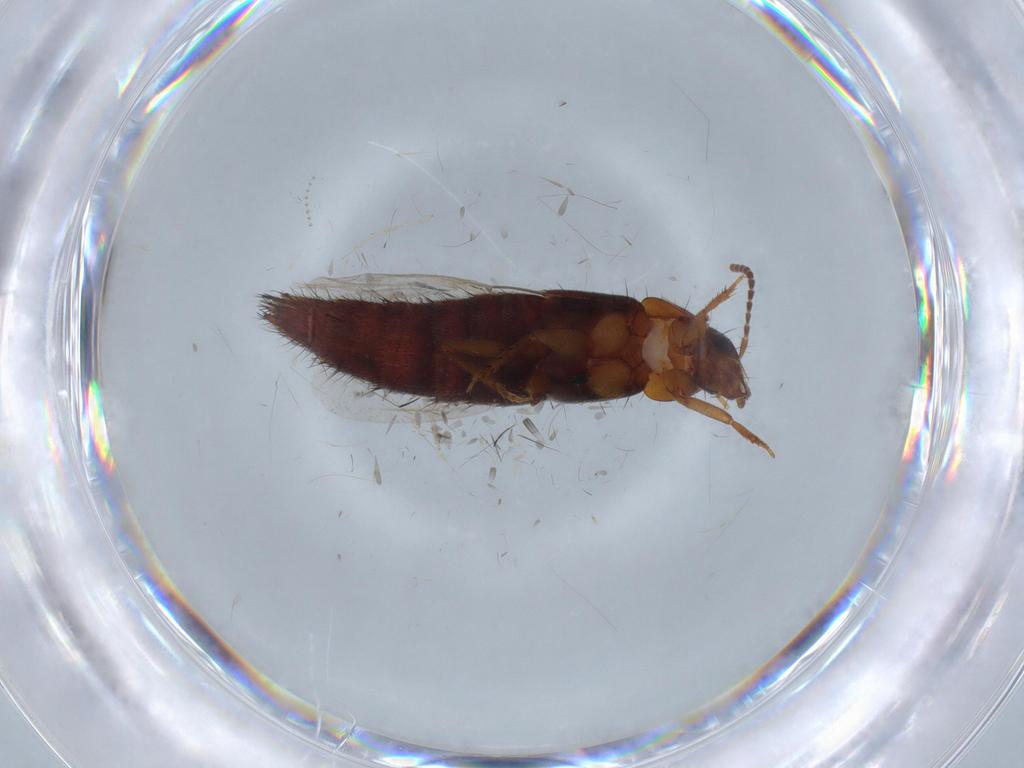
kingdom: Animalia
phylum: Arthropoda
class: Insecta
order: Coleoptera
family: Staphylinidae
